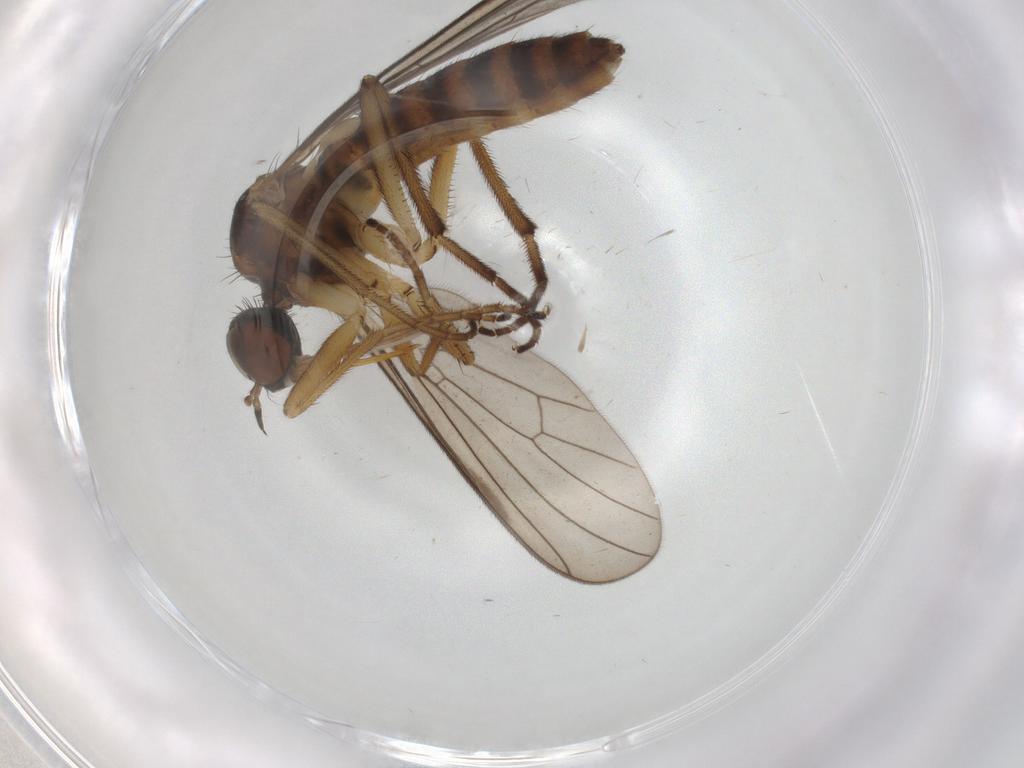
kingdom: Animalia
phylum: Arthropoda
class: Insecta
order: Diptera
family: Empididae
